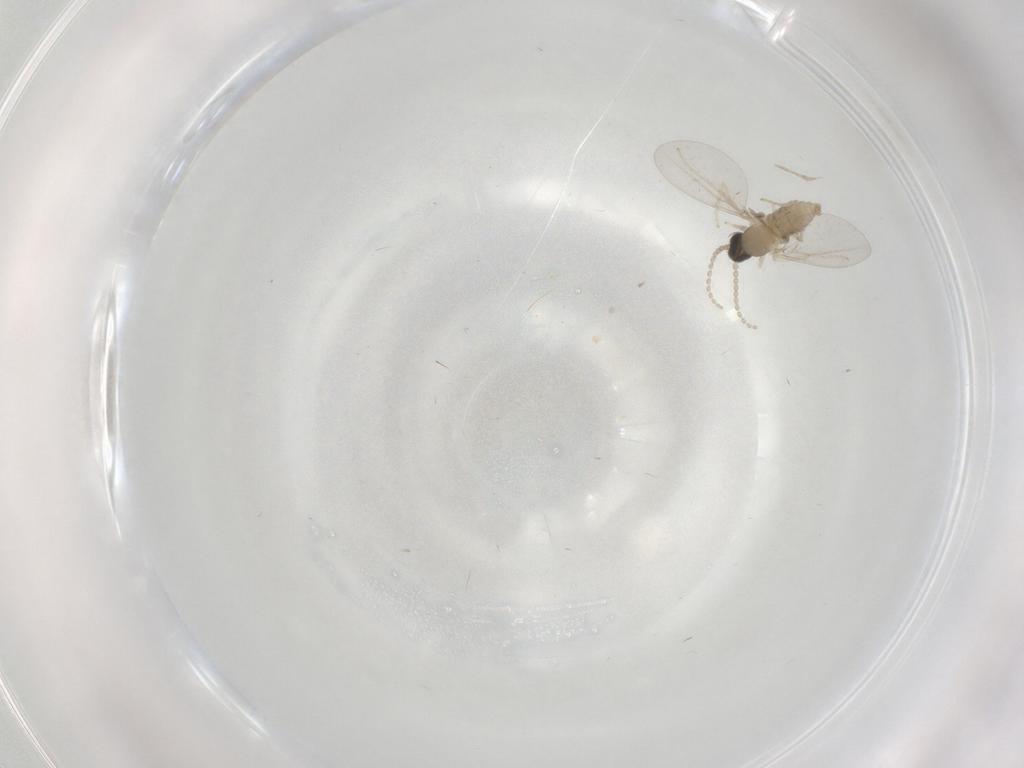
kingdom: Animalia
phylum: Arthropoda
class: Insecta
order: Diptera
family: Cecidomyiidae
